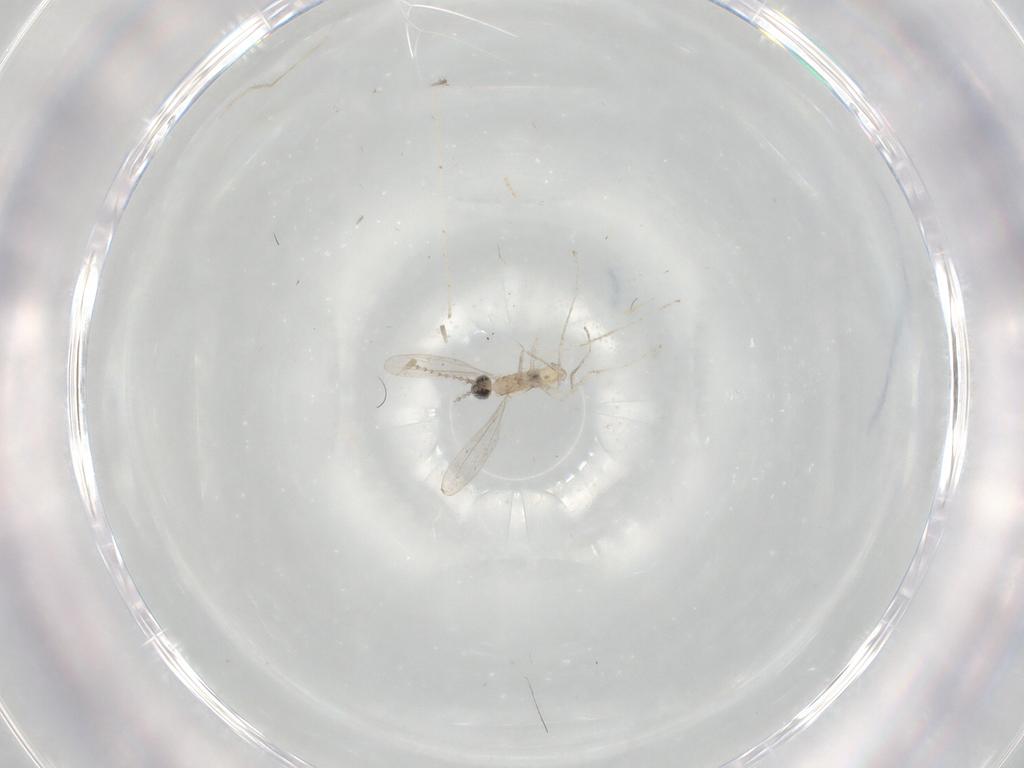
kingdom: Animalia
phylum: Arthropoda
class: Insecta
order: Diptera
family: Cecidomyiidae
